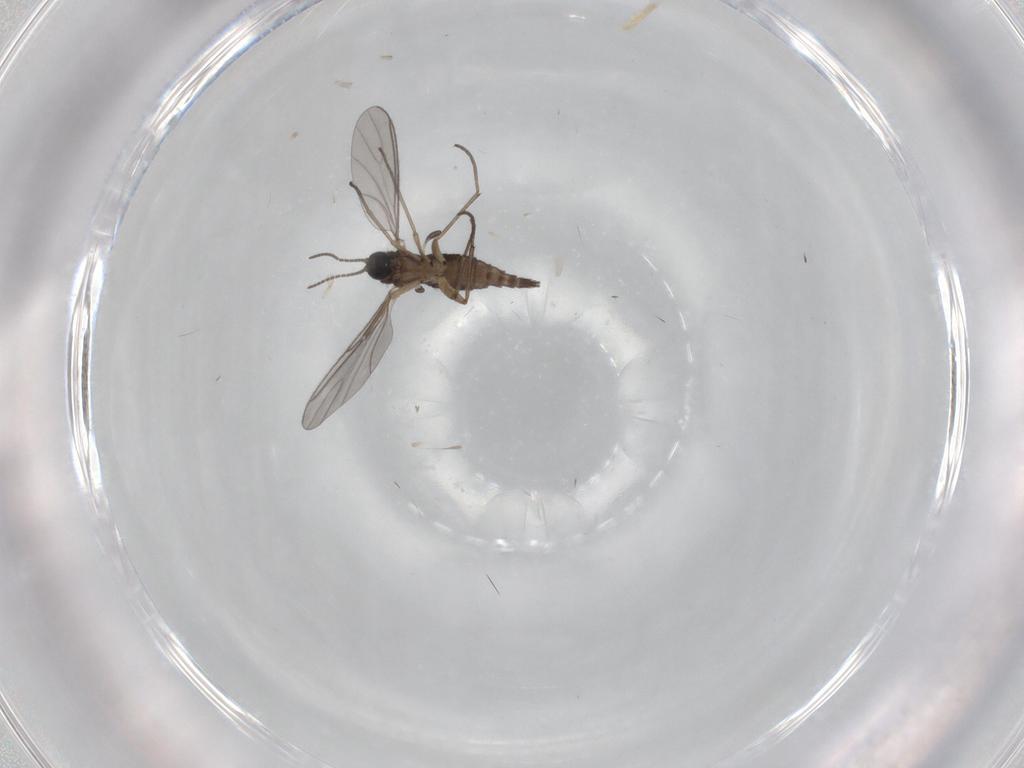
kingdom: Animalia
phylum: Arthropoda
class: Insecta
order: Diptera
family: Sciaridae
